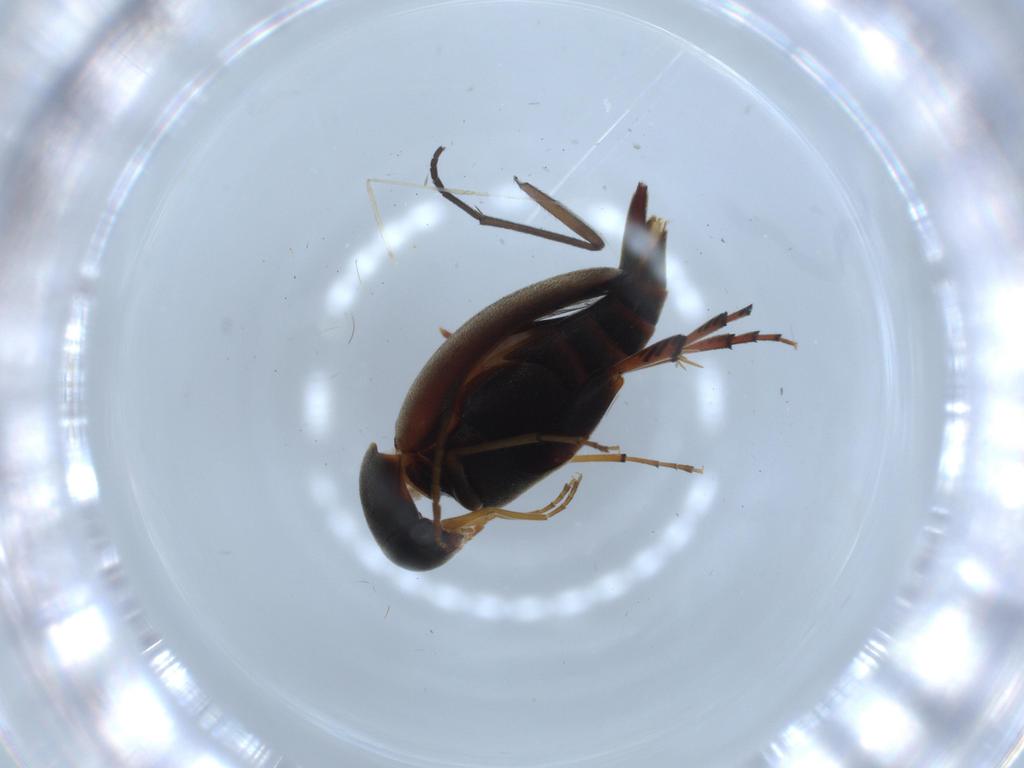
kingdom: Animalia
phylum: Arthropoda
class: Insecta
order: Coleoptera
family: Mordellidae
